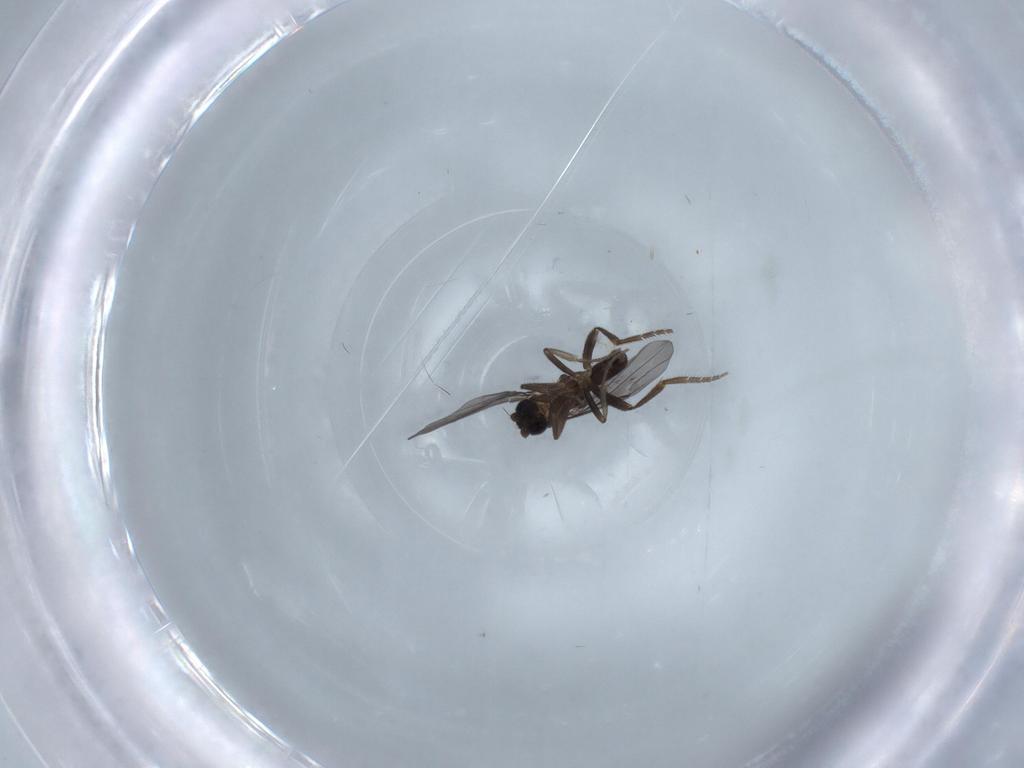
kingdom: Animalia
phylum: Arthropoda
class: Insecta
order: Diptera
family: Phoridae
